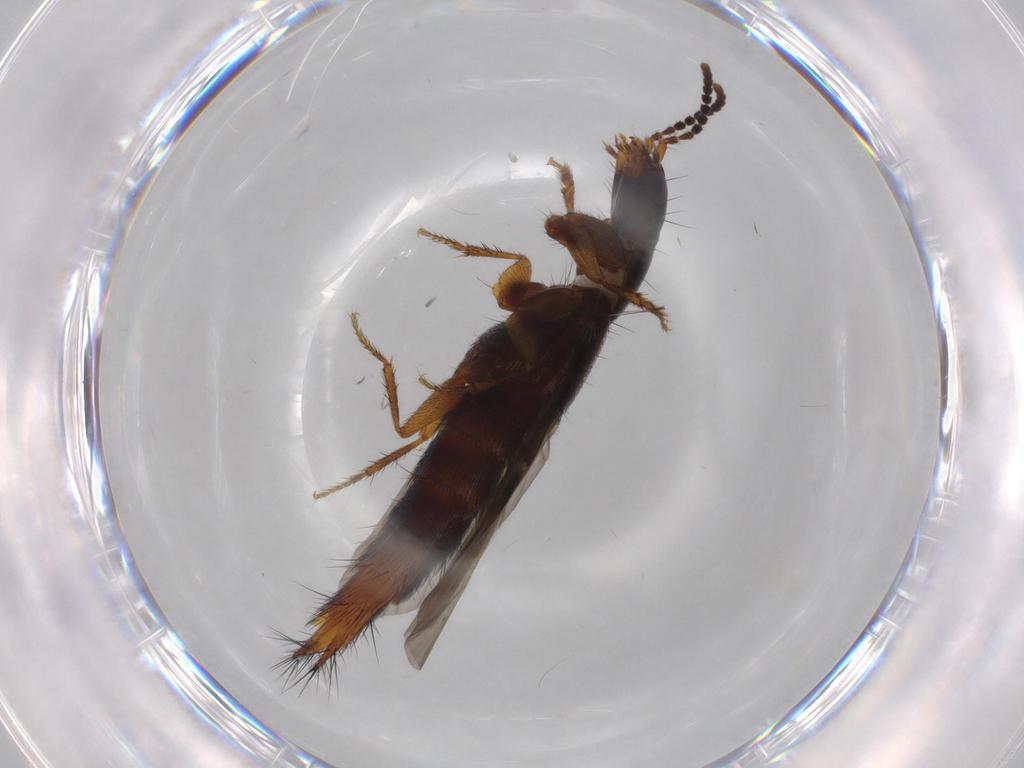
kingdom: Animalia
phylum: Arthropoda
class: Insecta
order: Coleoptera
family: Staphylinidae
